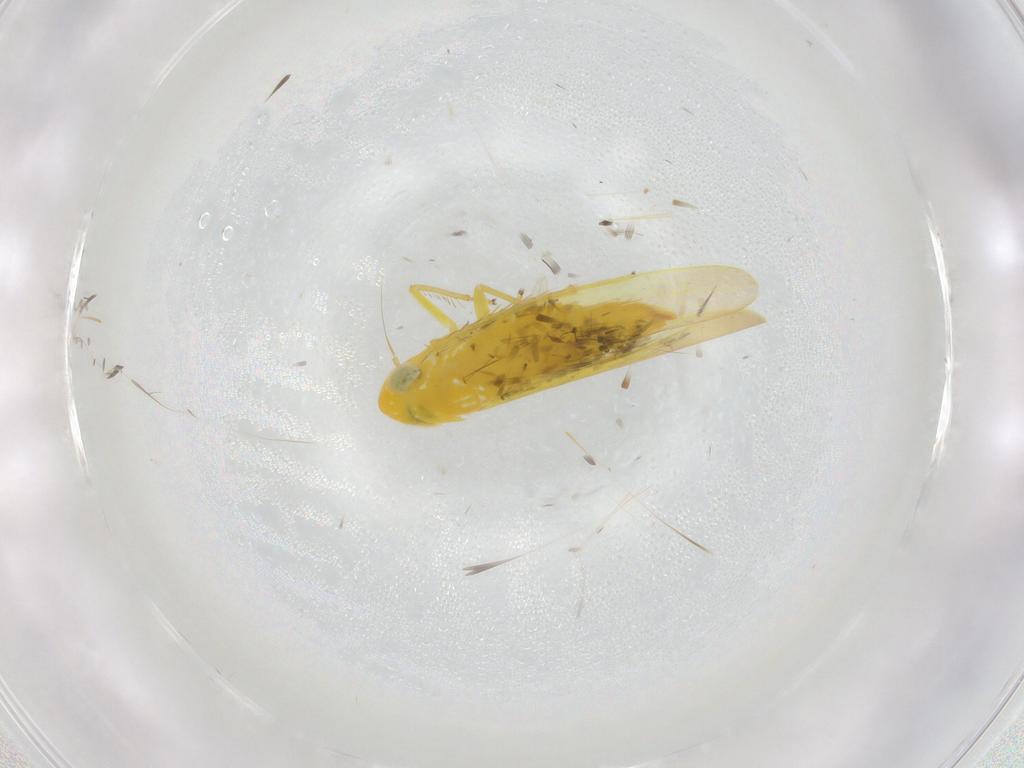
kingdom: Animalia
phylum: Arthropoda
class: Insecta
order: Hemiptera
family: Cicadellidae
